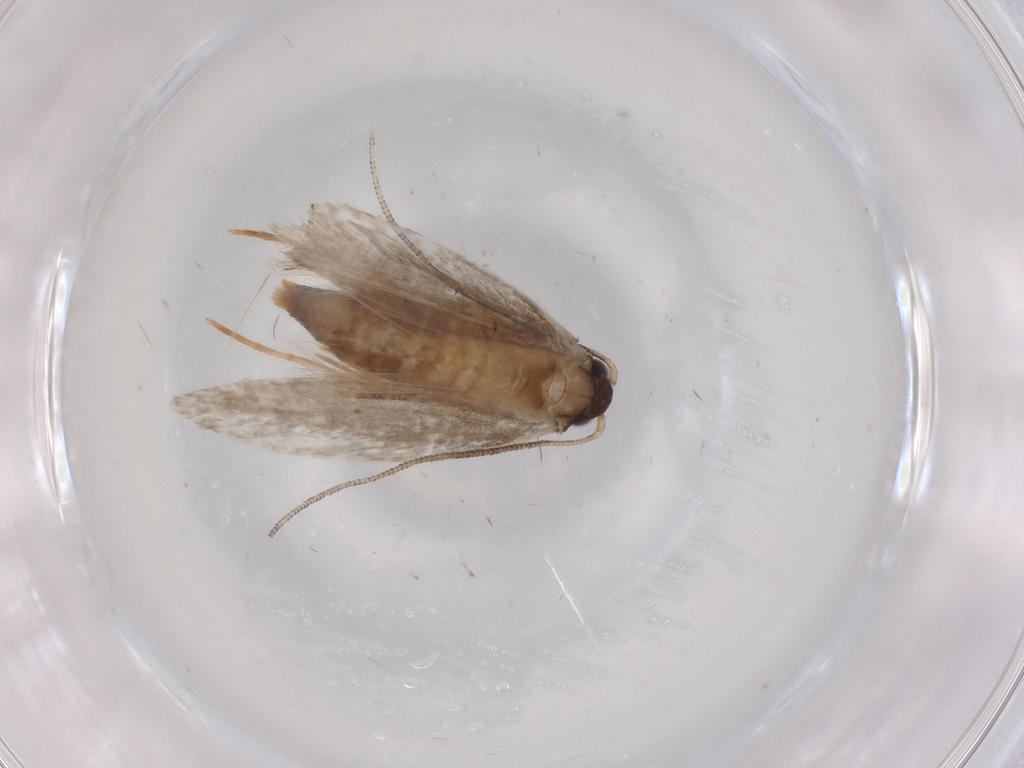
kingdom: Animalia
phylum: Arthropoda
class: Insecta
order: Lepidoptera
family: Tineidae
